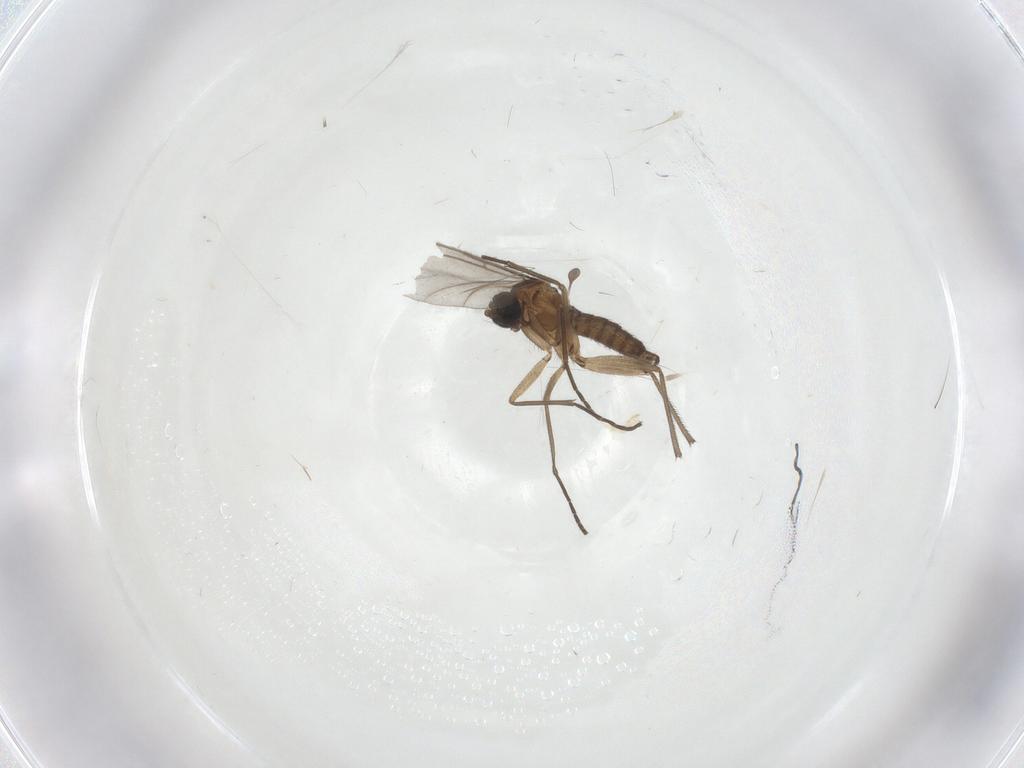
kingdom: Animalia
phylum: Arthropoda
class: Insecta
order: Diptera
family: Sciaridae
